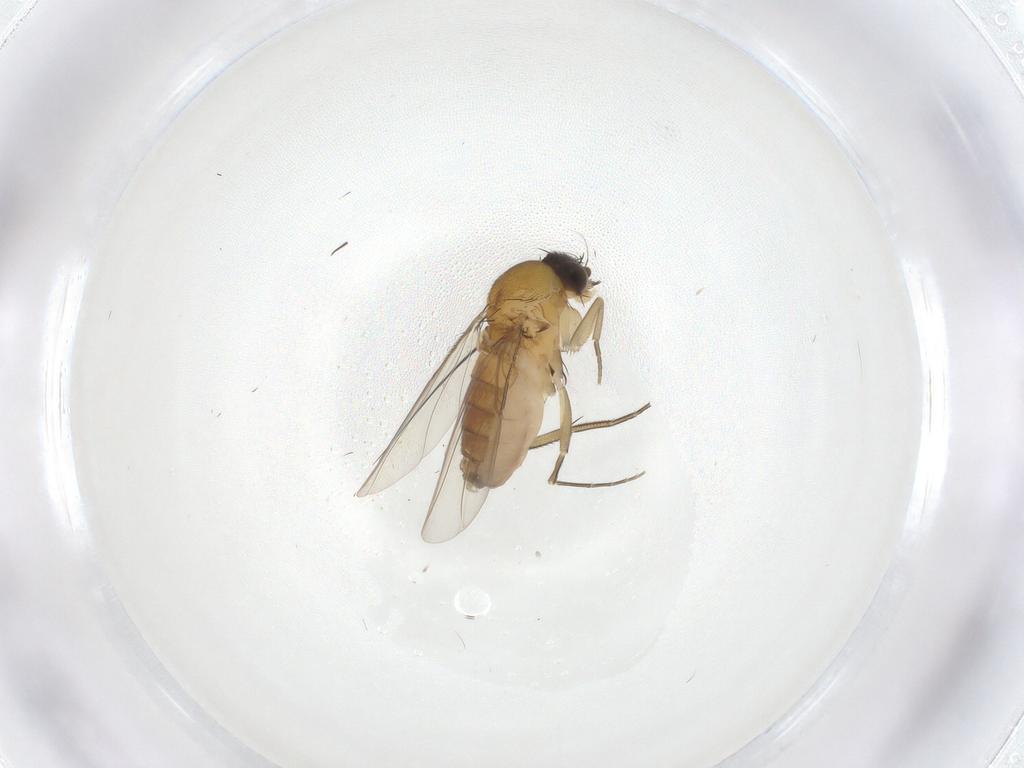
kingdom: Animalia
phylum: Arthropoda
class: Insecta
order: Diptera
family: Phoridae
